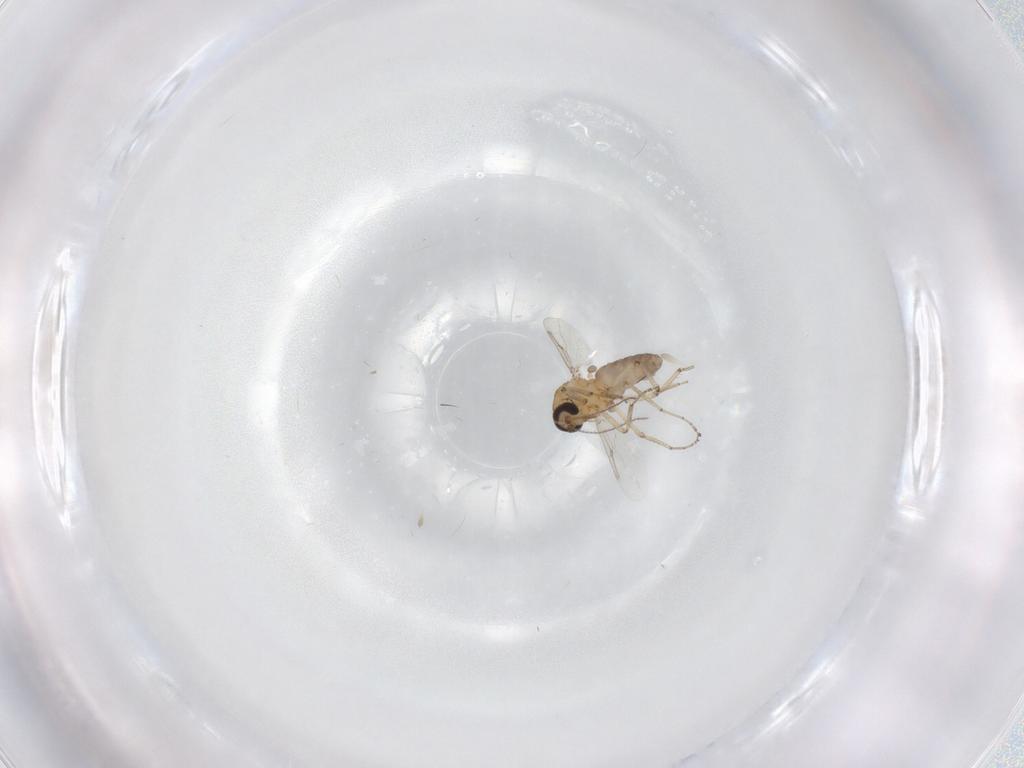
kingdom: Animalia
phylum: Arthropoda
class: Insecta
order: Diptera
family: Ceratopogonidae
